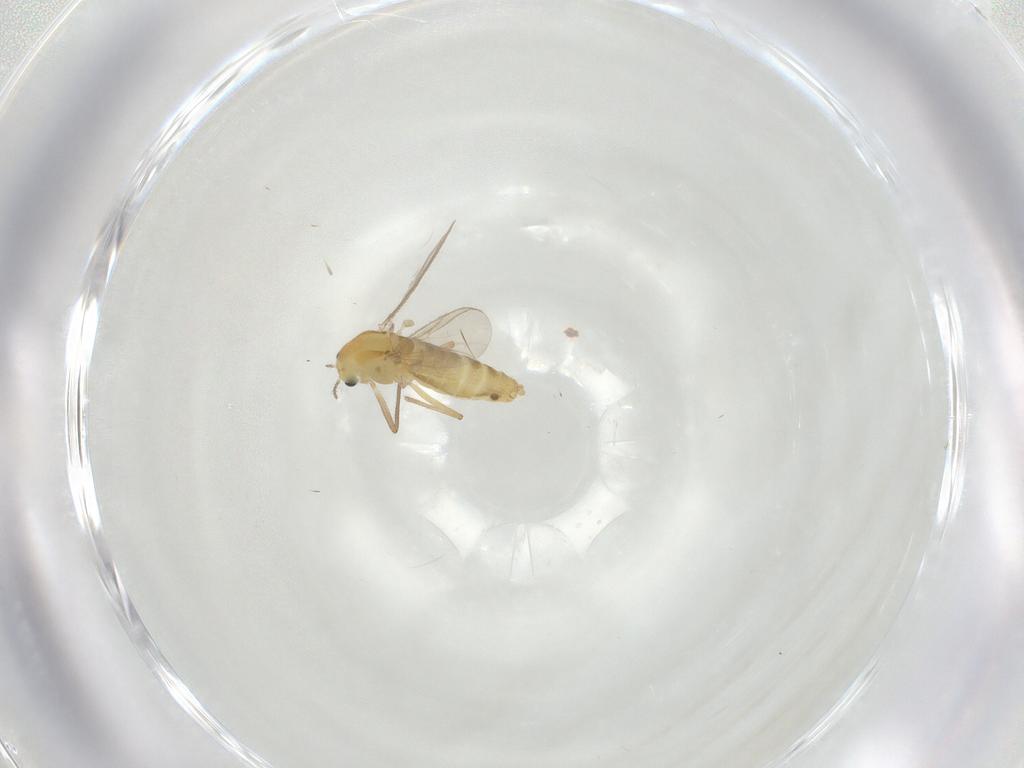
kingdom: Animalia
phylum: Arthropoda
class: Insecta
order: Diptera
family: Chironomidae
